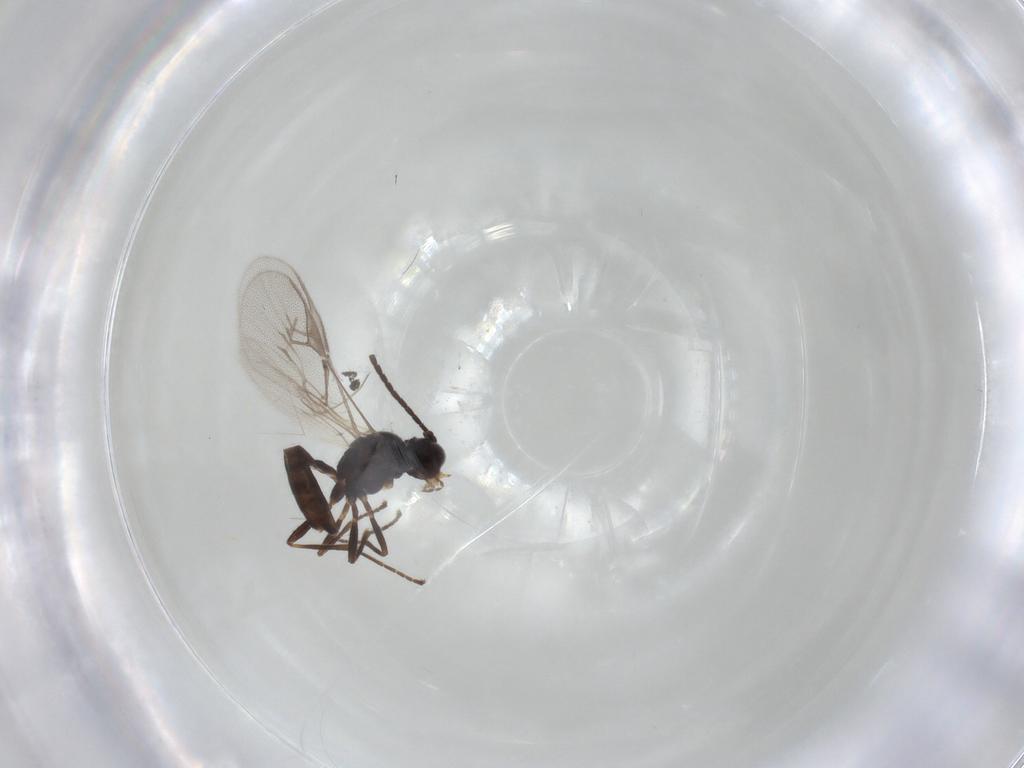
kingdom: Animalia
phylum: Arthropoda
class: Insecta
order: Hymenoptera
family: Braconidae
